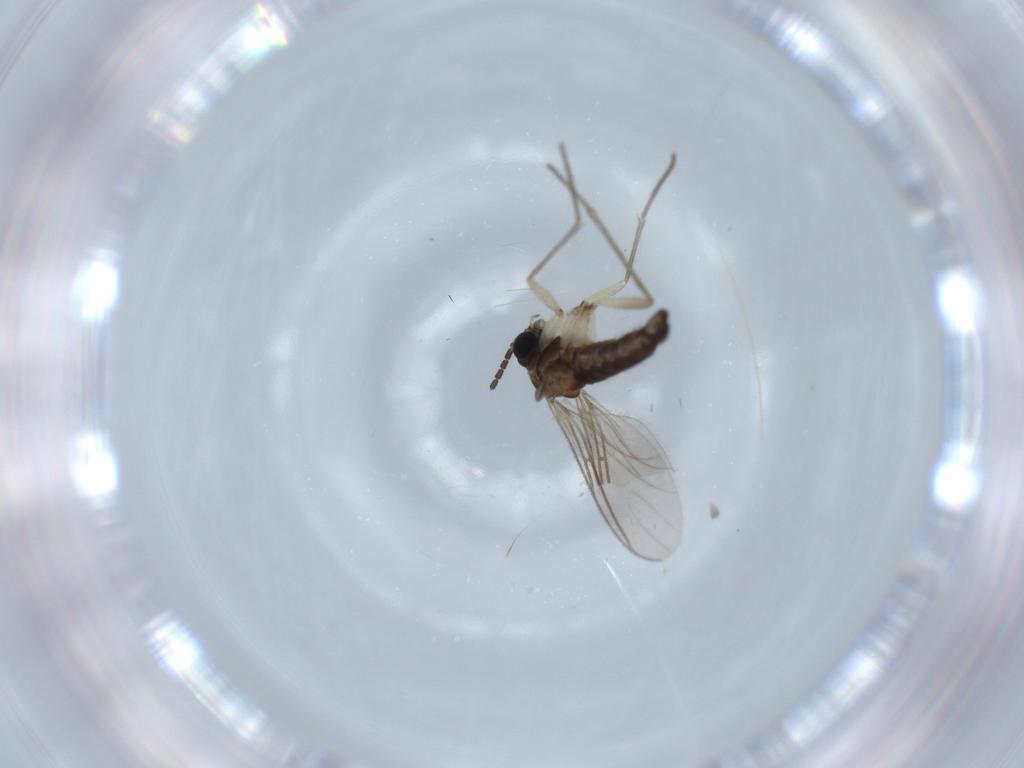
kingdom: Animalia
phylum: Arthropoda
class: Insecta
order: Diptera
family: Sciaridae
